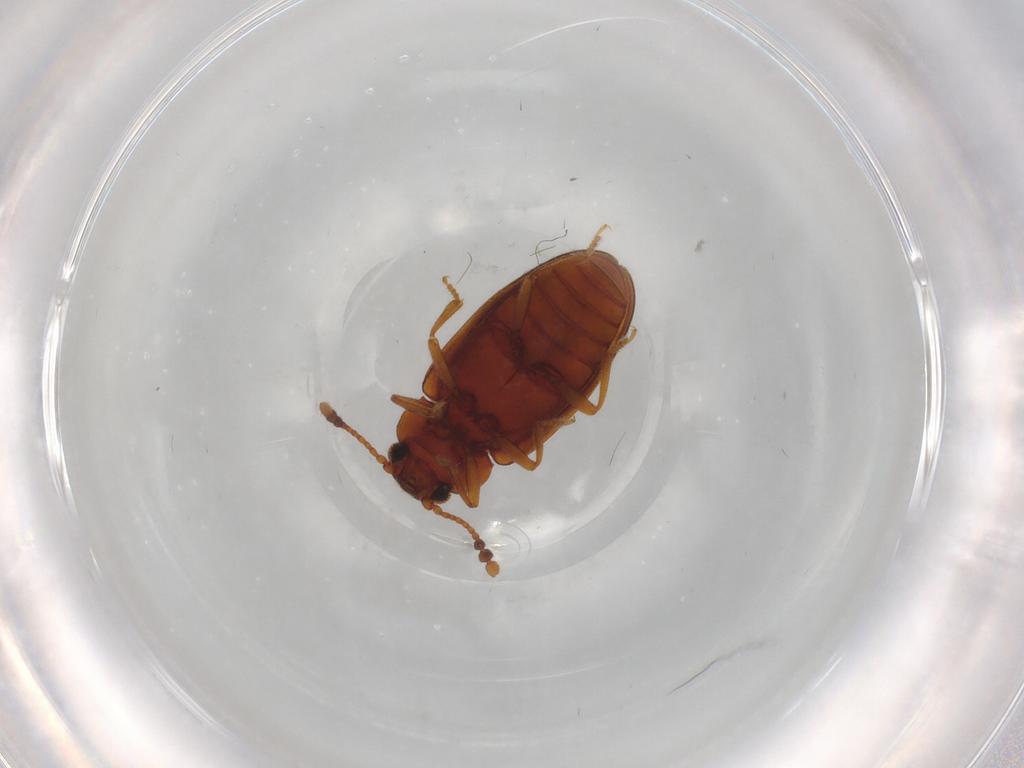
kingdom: Animalia
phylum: Arthropoda
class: Insecta
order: Coleoptera
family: Erotylidae
